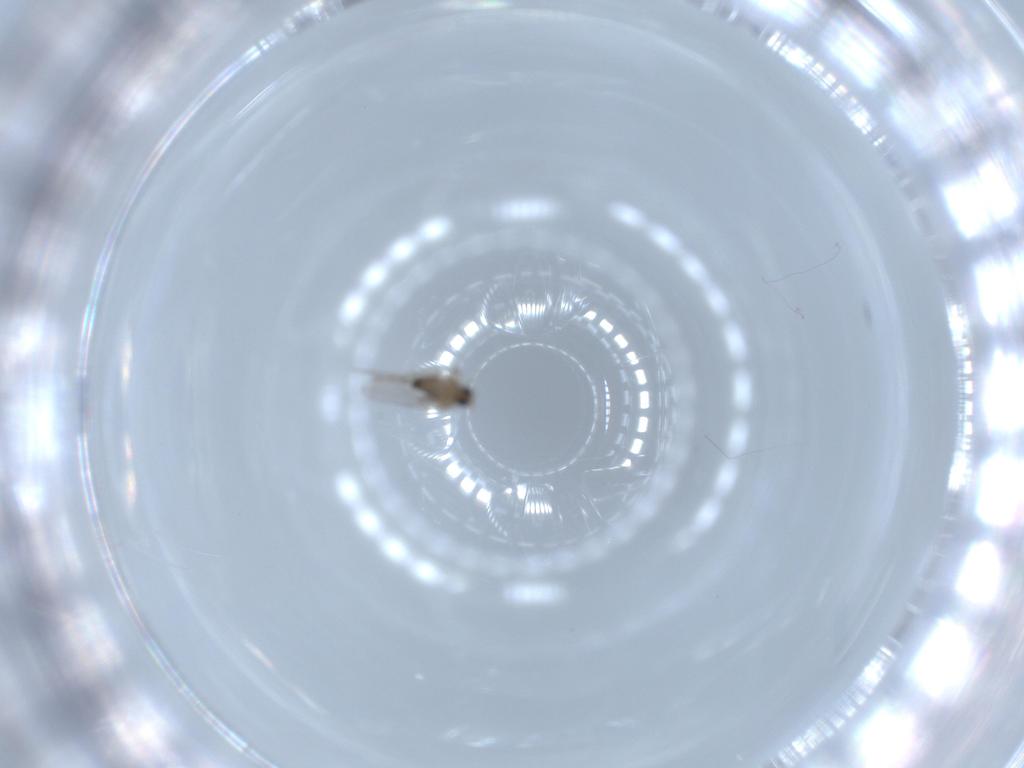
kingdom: Animalia
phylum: Arthropoda
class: Insecta
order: Diptera
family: Cecidomyiidae
